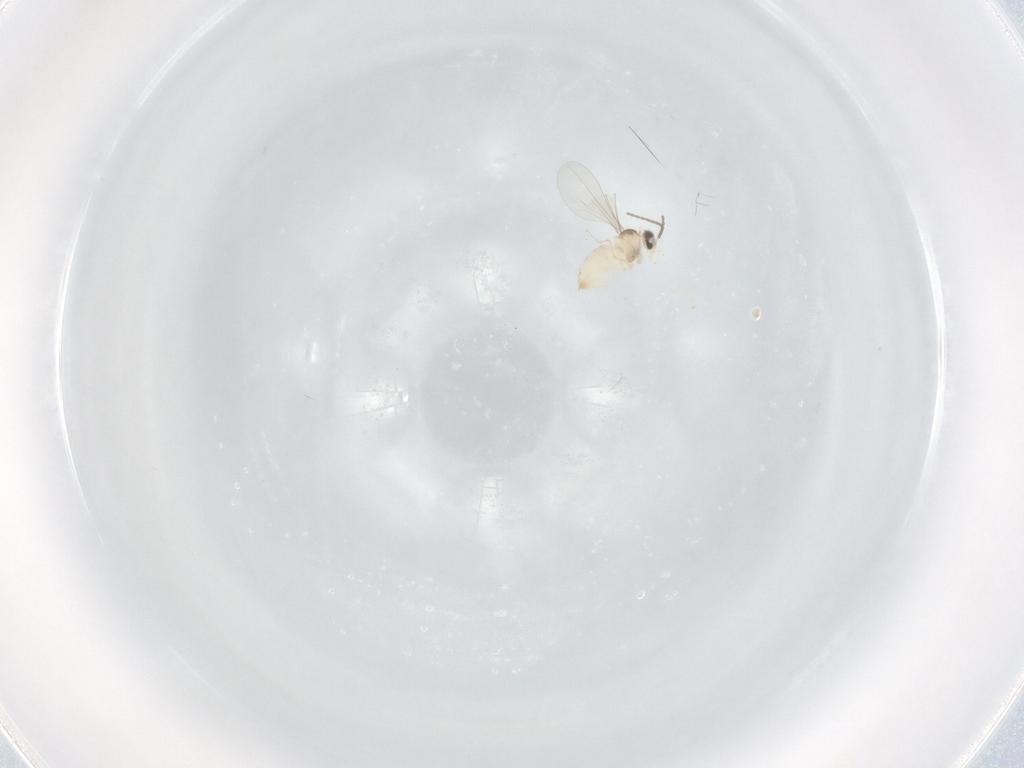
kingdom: Animalia
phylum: Arthropoda
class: Insecta
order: Diptera
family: Cecidomyiidae
